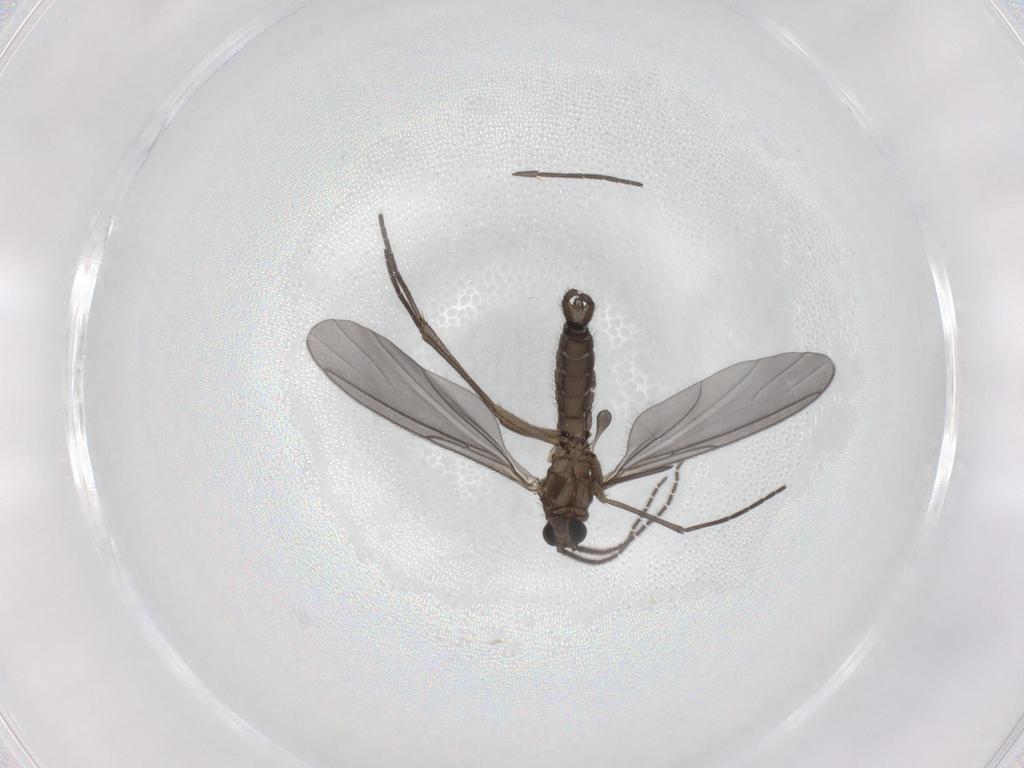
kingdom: Animalia
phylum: Arthropoda
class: Insecta
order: Diptera
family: Sciaridae
